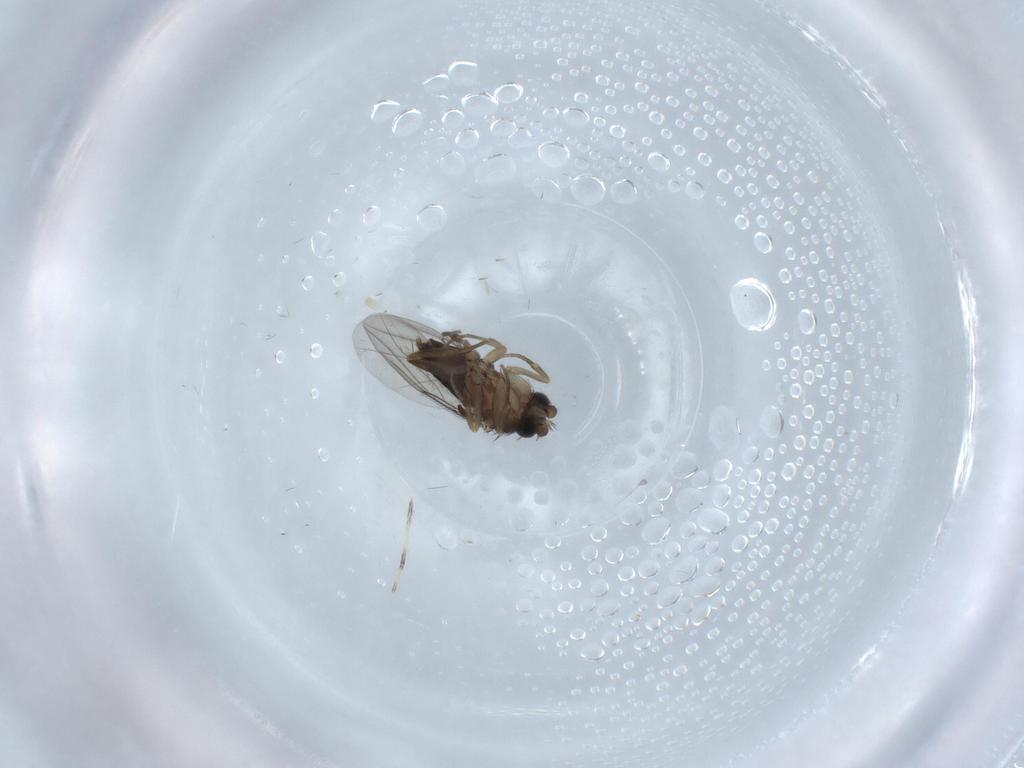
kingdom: Animalia
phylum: Arthropoda
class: Insecta
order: Diptera
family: Phoridae
